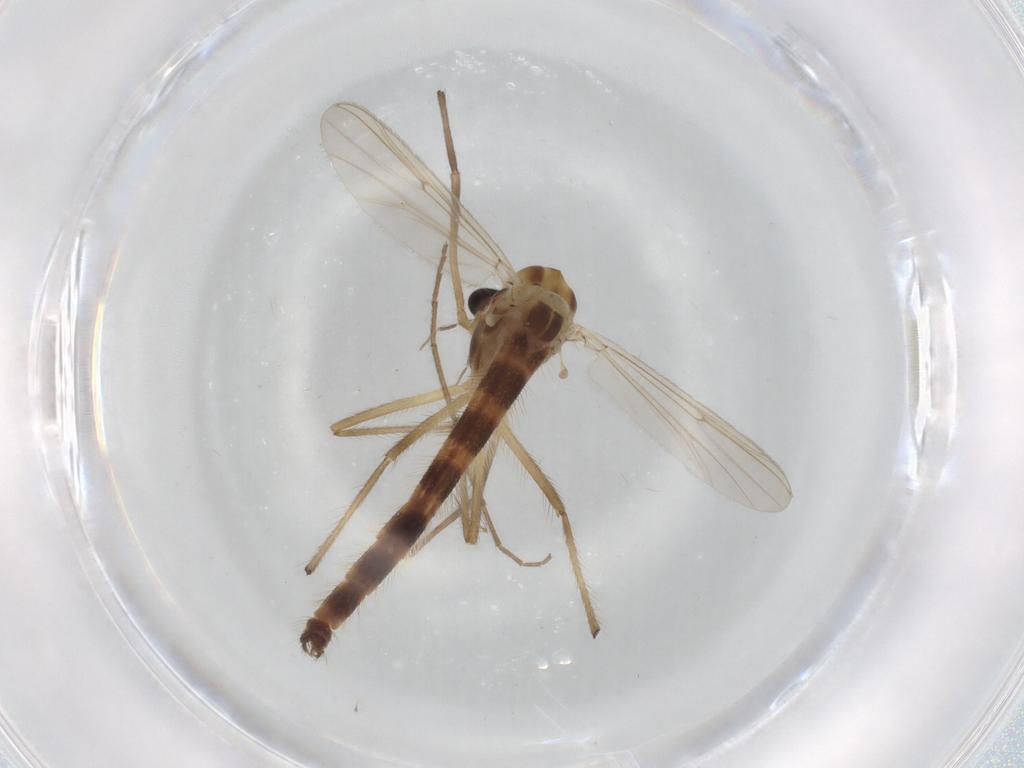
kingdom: Animalia
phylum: Arthropoda
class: Insecta
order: Diptera
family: Chironomidae
